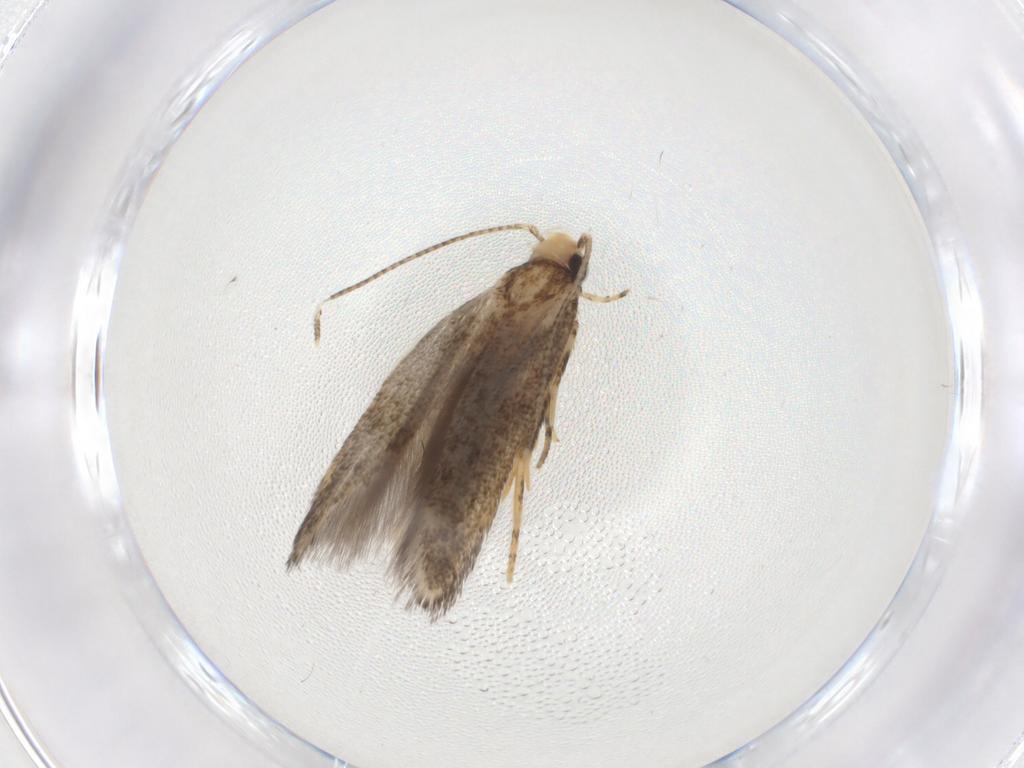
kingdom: Animalia
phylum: Arthropoda
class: Insecta
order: Lepidoptera
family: Gelechiidae
